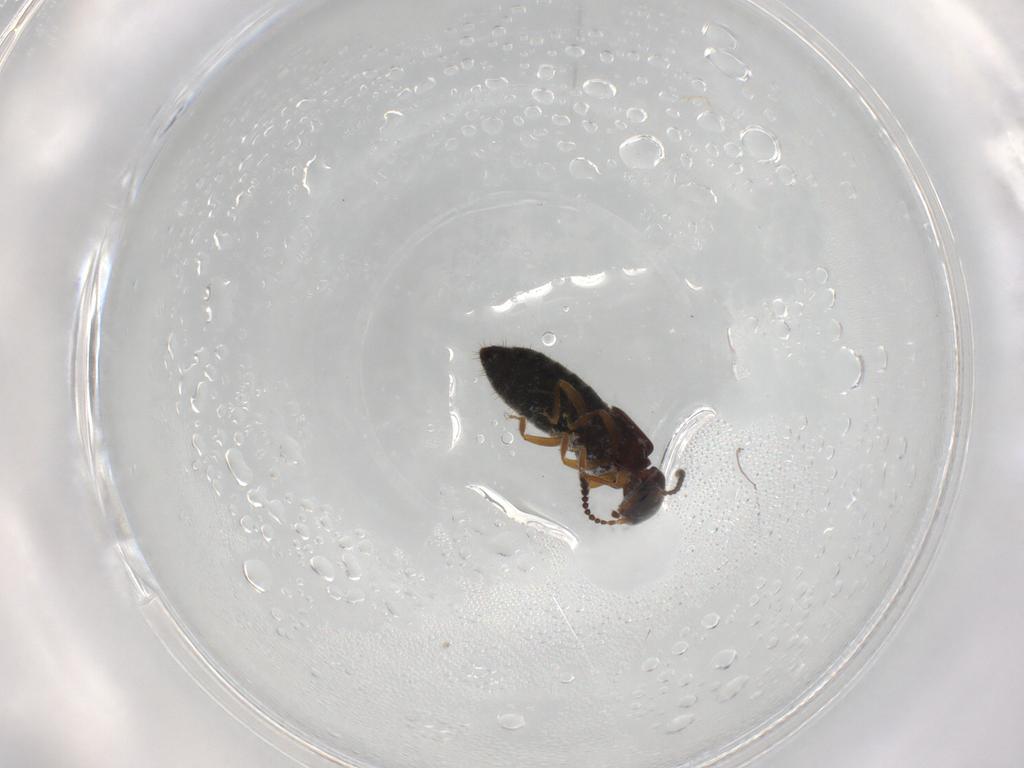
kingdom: Animalia
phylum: Arthropoda
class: Insecta
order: Coleoptera
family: Staphylinidae
